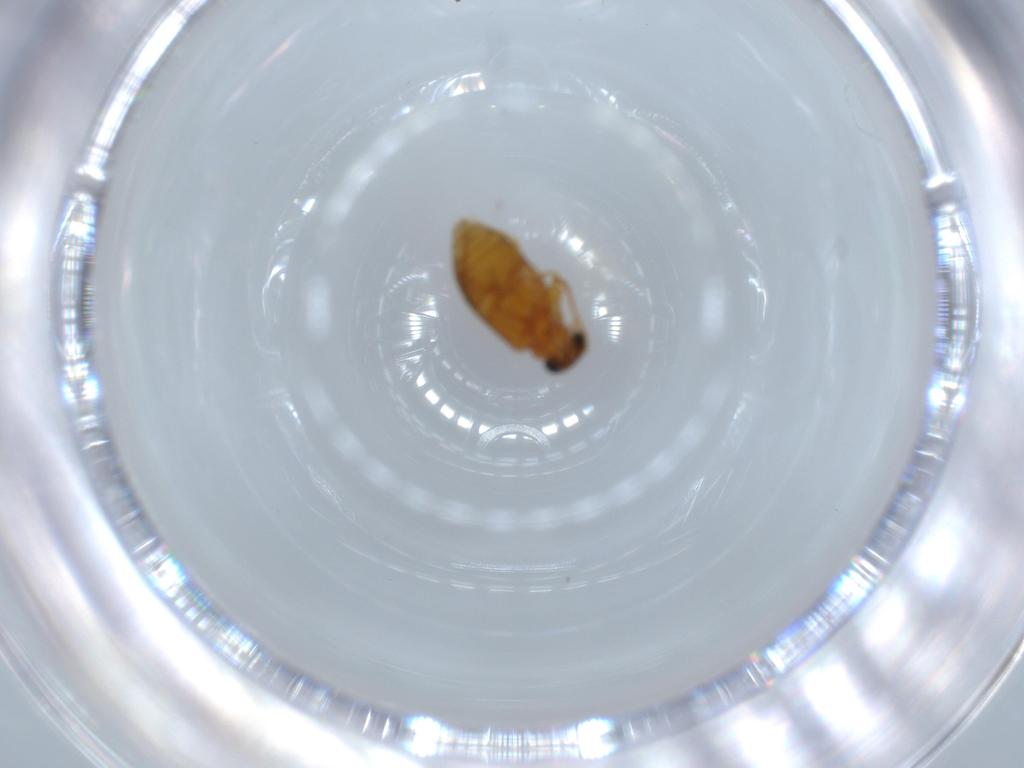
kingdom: Animalia
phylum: Arthropoda
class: Insecta
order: Coleoptera
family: Aderidae
